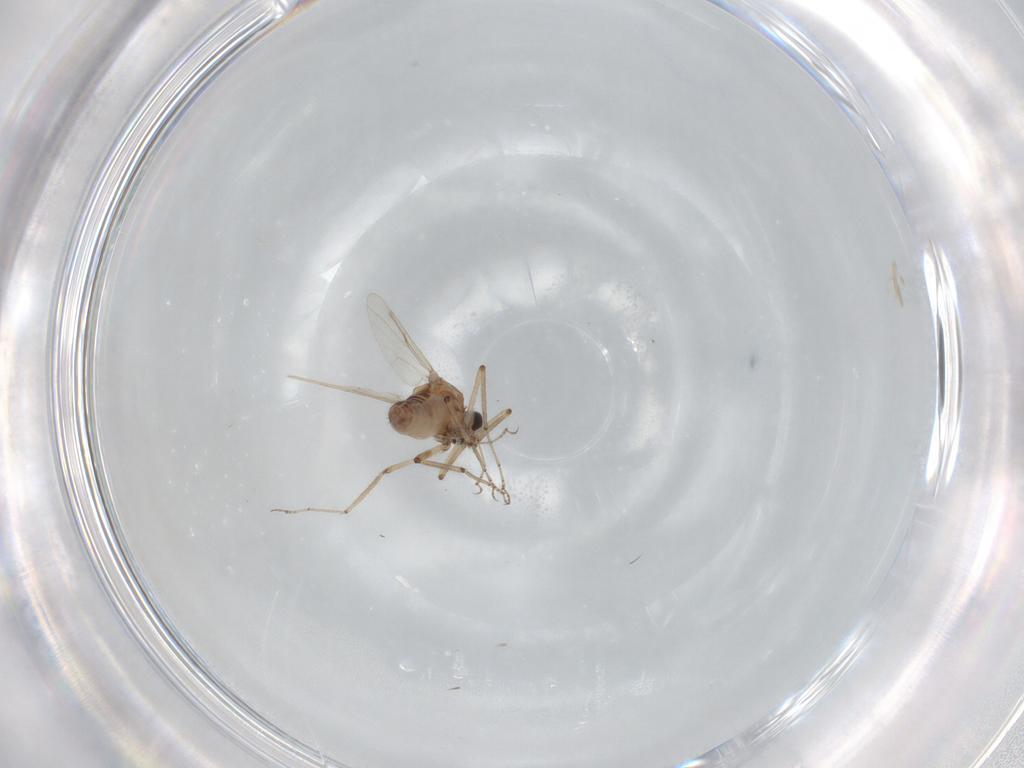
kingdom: Animalia
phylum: Arthropoda
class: Insecta
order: Diptera
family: Ceratopogonidae
